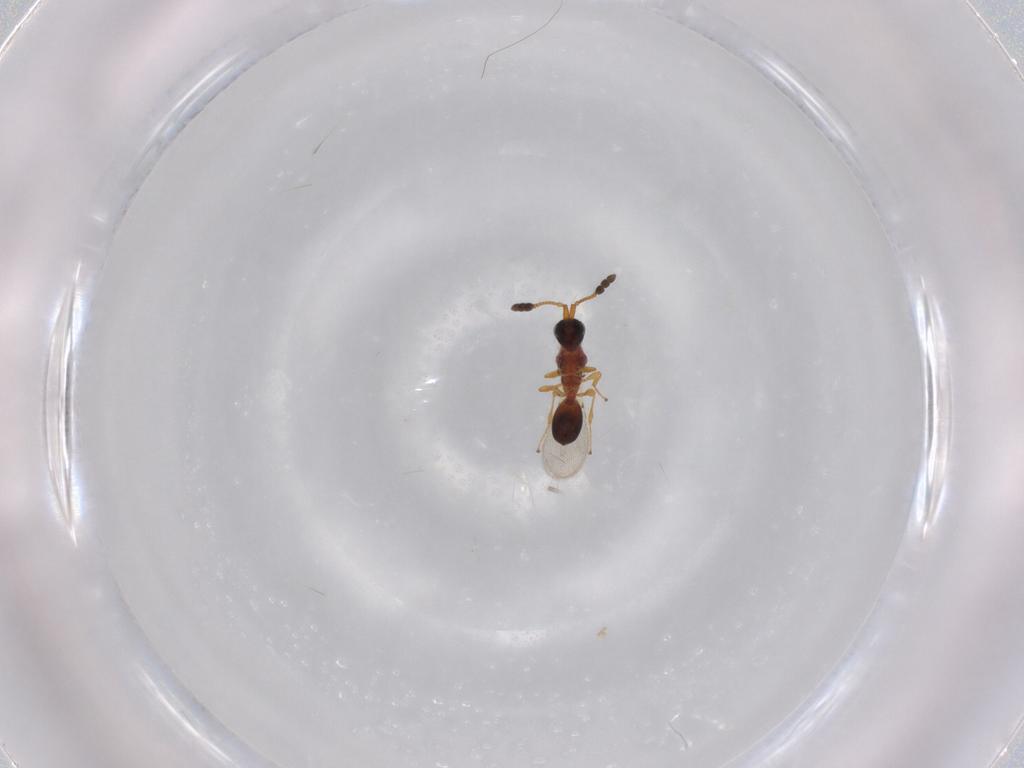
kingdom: Animalia
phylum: Arthropoda
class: Insecta
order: Hymenoptera
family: Diapriidae
